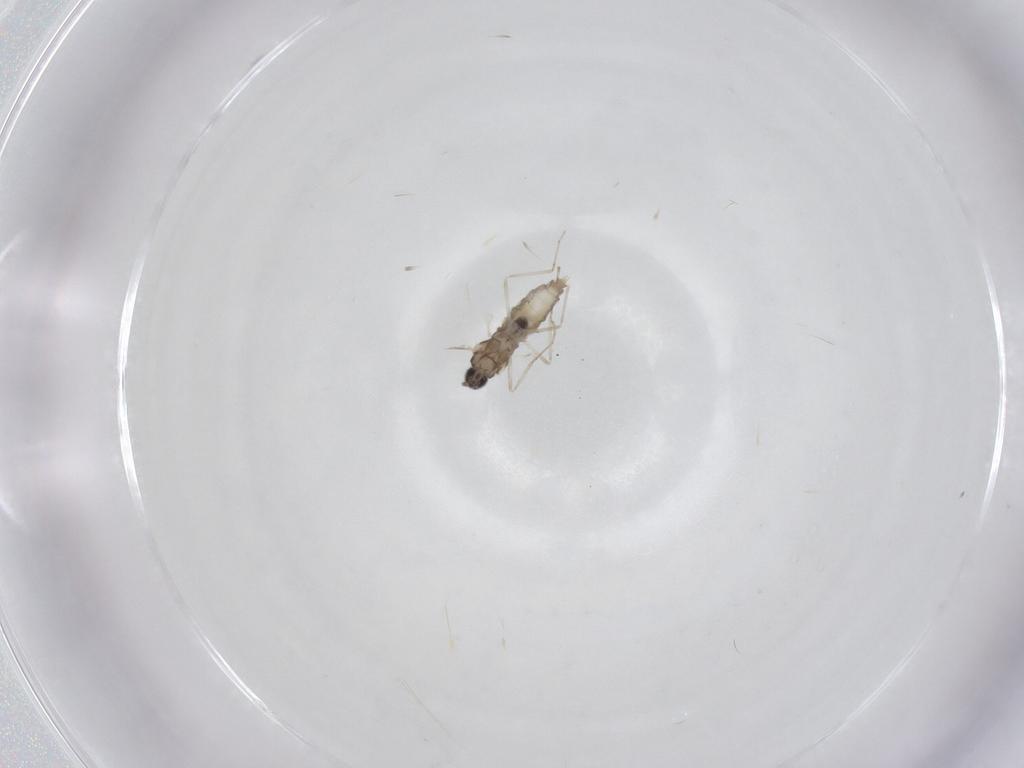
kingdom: Animalia
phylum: Arthropoda
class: Insecta
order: Diptera
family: Cecidomyiidae
